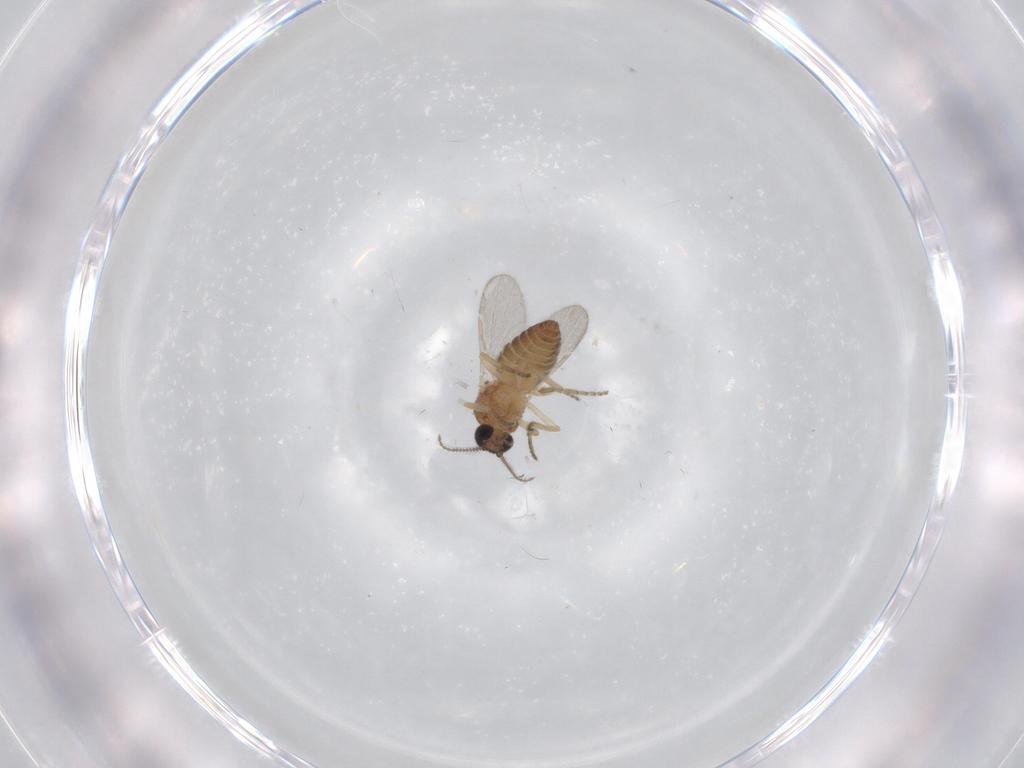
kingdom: Animalia
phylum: Arthropoda
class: Insecta
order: Diptera
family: Ceratopogonidae
